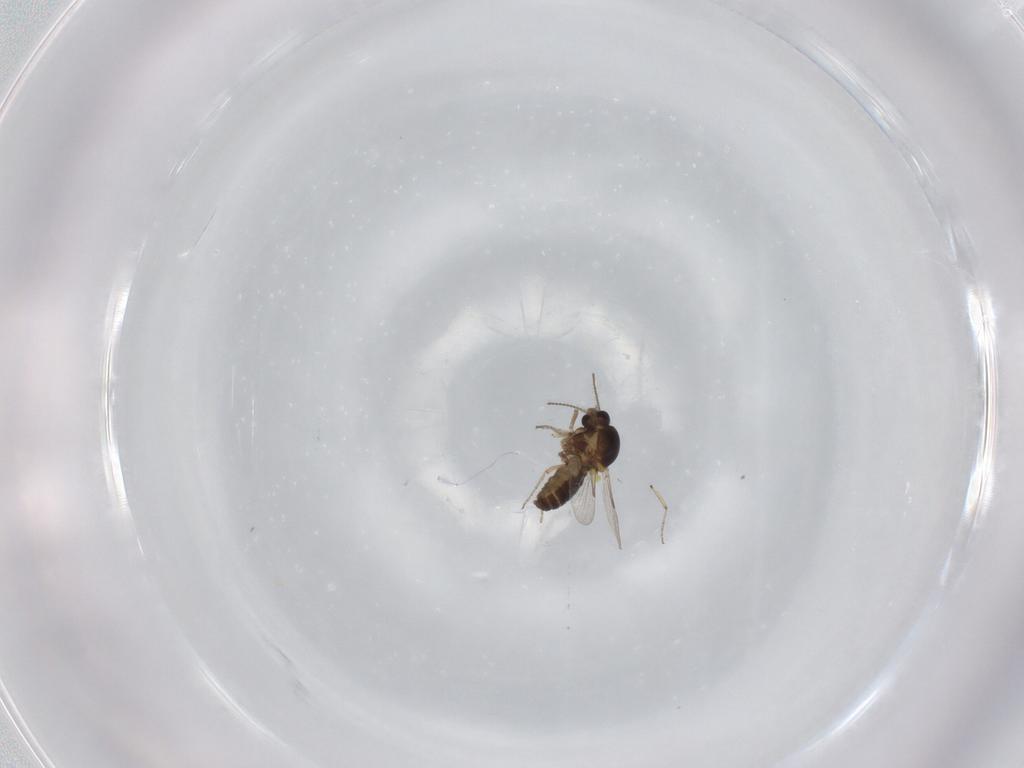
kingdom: Animalia
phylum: Arthropoda
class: Insecta
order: Diptera
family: Ceratopogonidae
